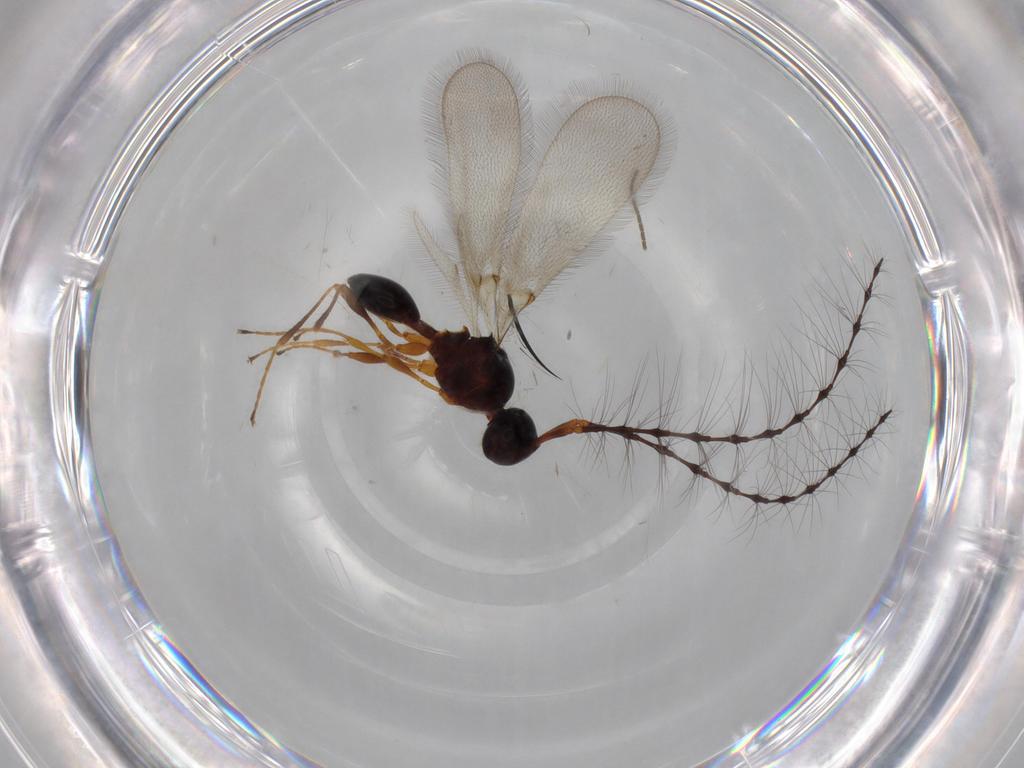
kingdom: Animalia
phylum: Arthropoda
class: Insecta
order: Hymenoptera
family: Diapriidae
